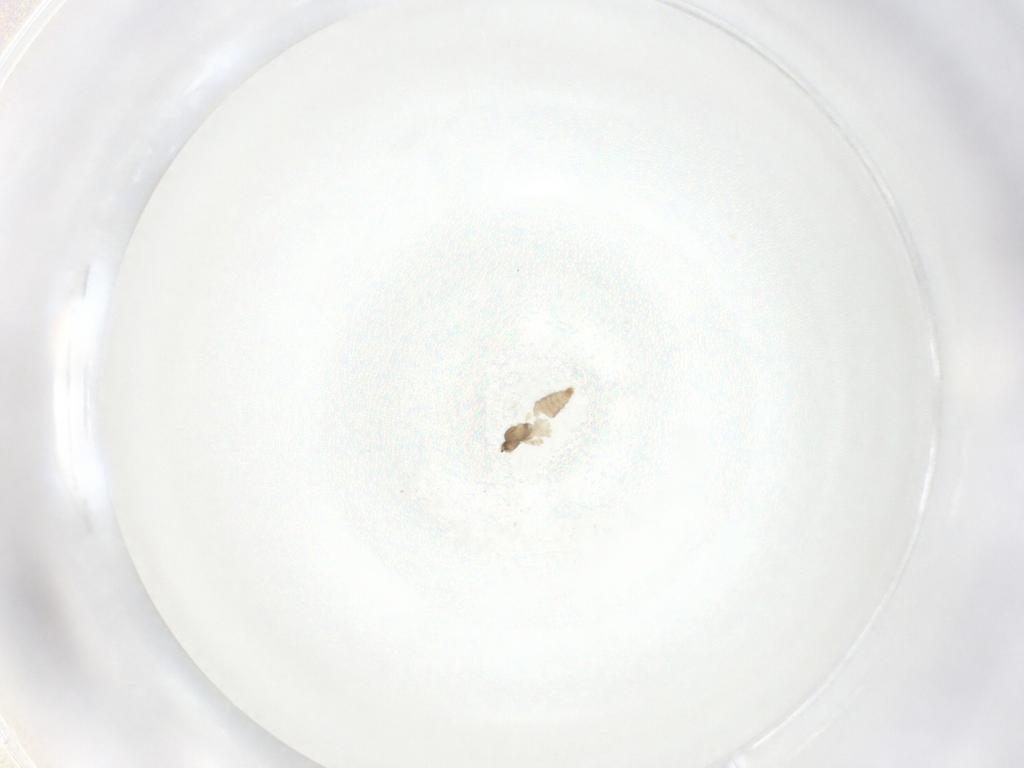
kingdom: Animalia
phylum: Arthropoda
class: Insecta
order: Diptera
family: Cecidomyiidae
